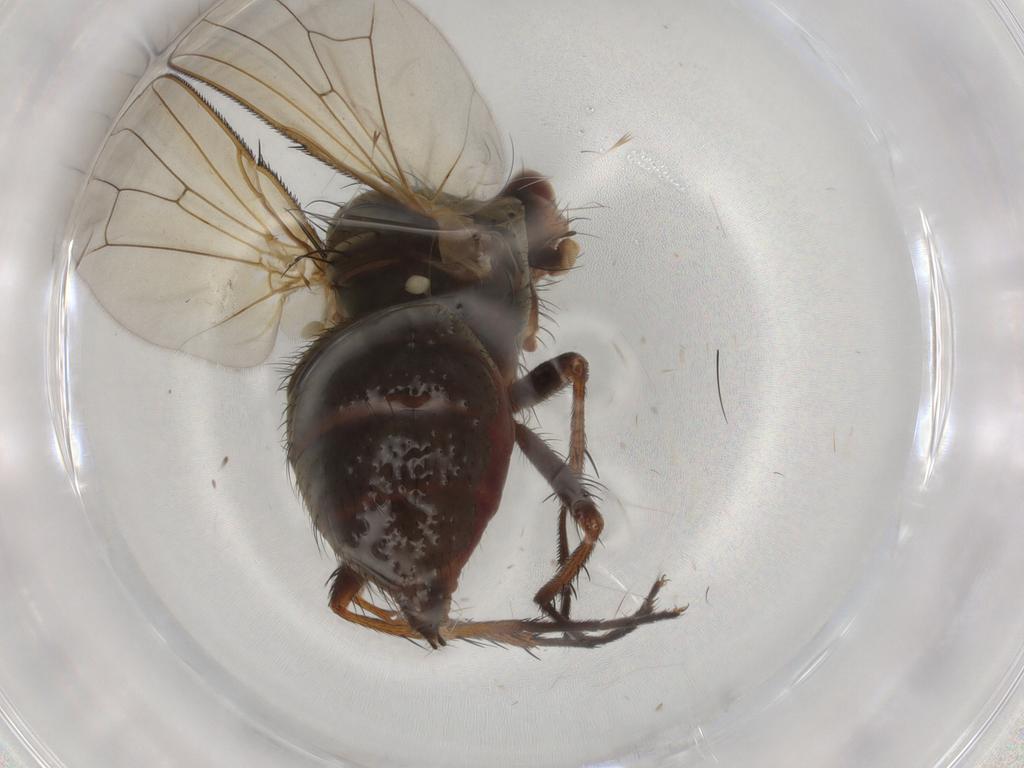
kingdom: Animalia
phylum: Arthropoda
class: Insecta
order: Diptera
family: Anthomyiidae
